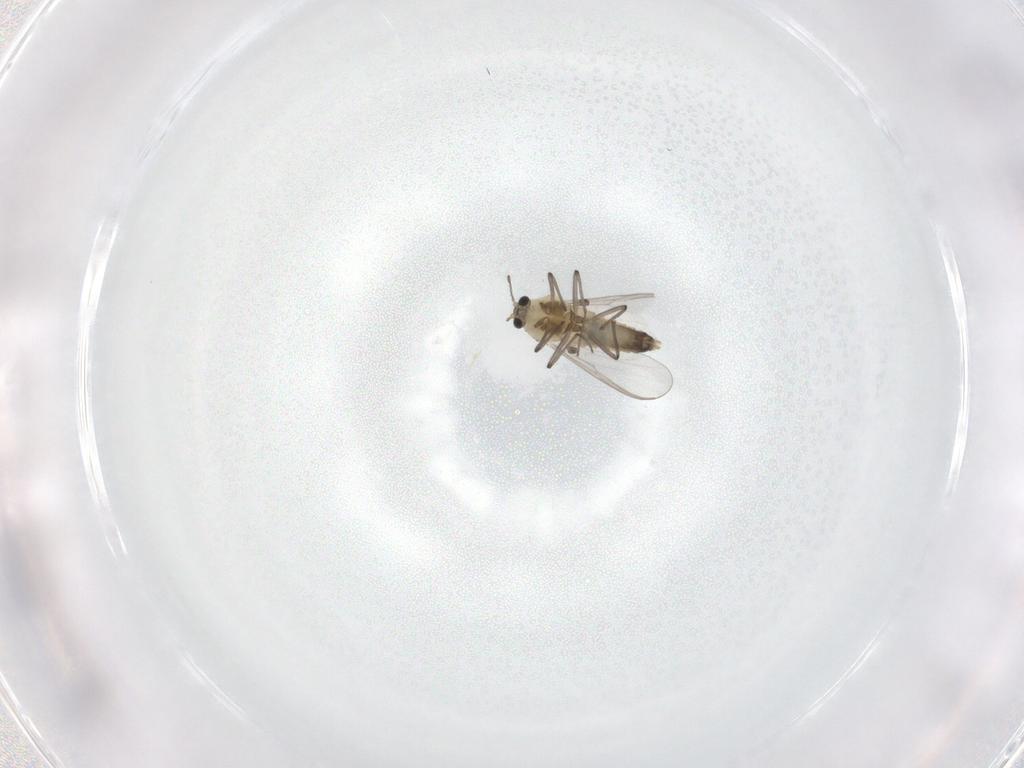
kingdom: Animalia
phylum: Arthropoda
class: Insecta
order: Diptera
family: Chironomidae
